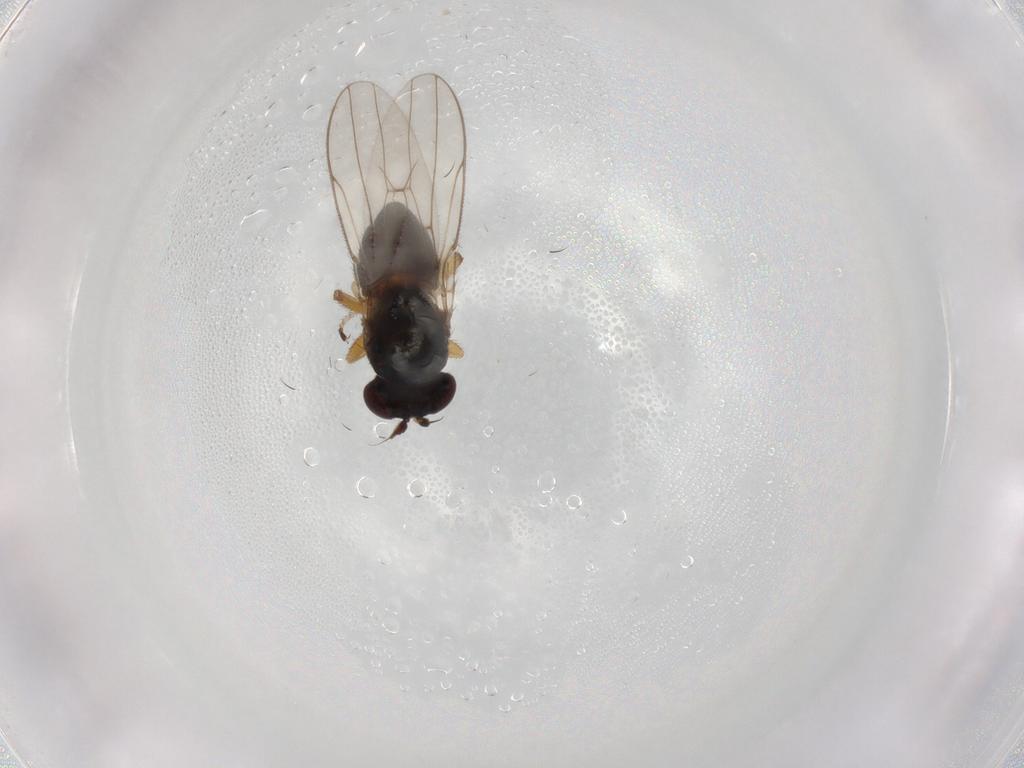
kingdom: Animalia
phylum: Arthropoda
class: Insecta
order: Diptera
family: Ephydridae
